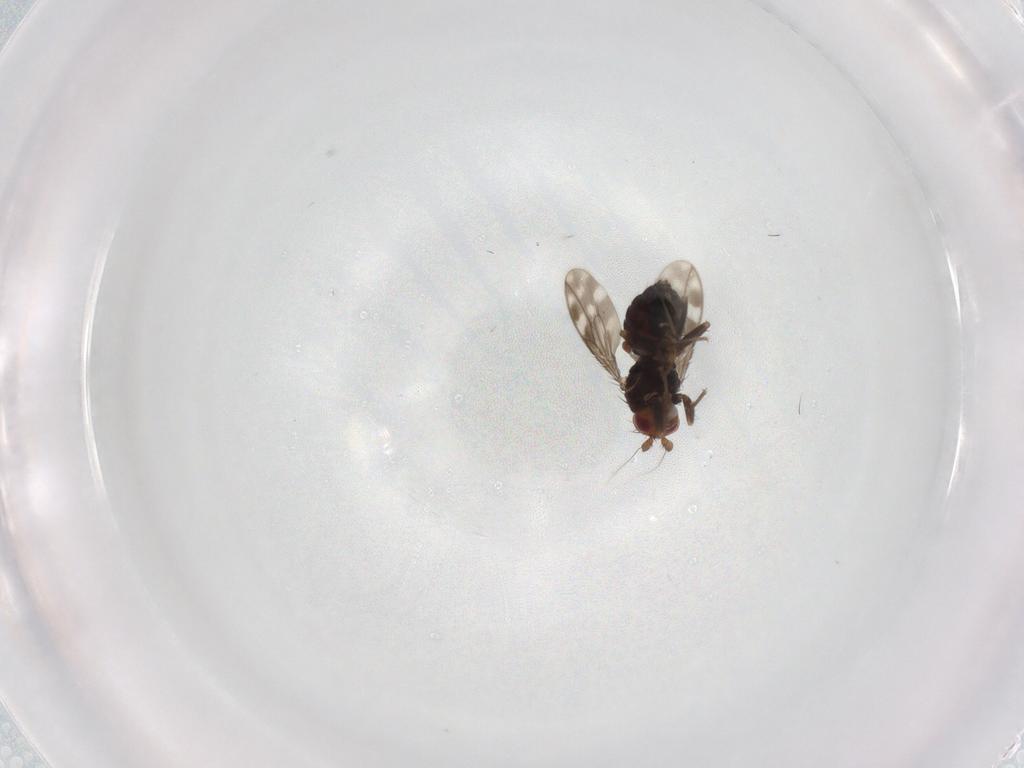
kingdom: Animalia
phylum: Arthropoda
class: Insecta
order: Diptera
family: Sphaeroceridae
